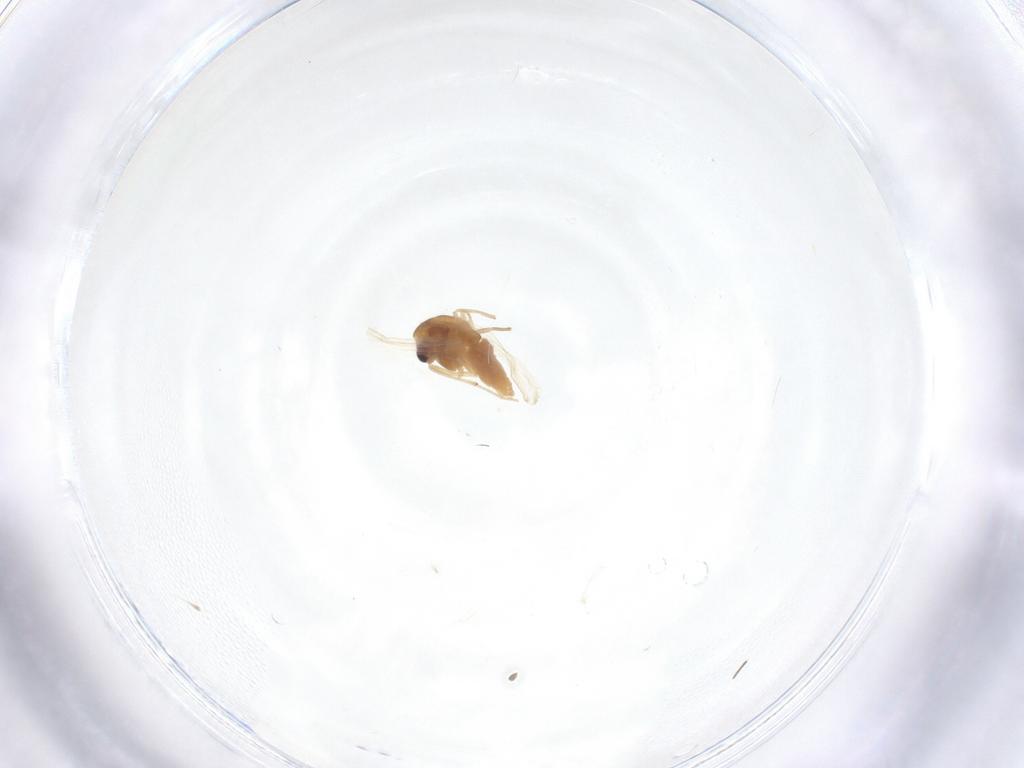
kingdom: Animalia
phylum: Arthropoda
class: Insecta
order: Diptera
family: Chironomidae
